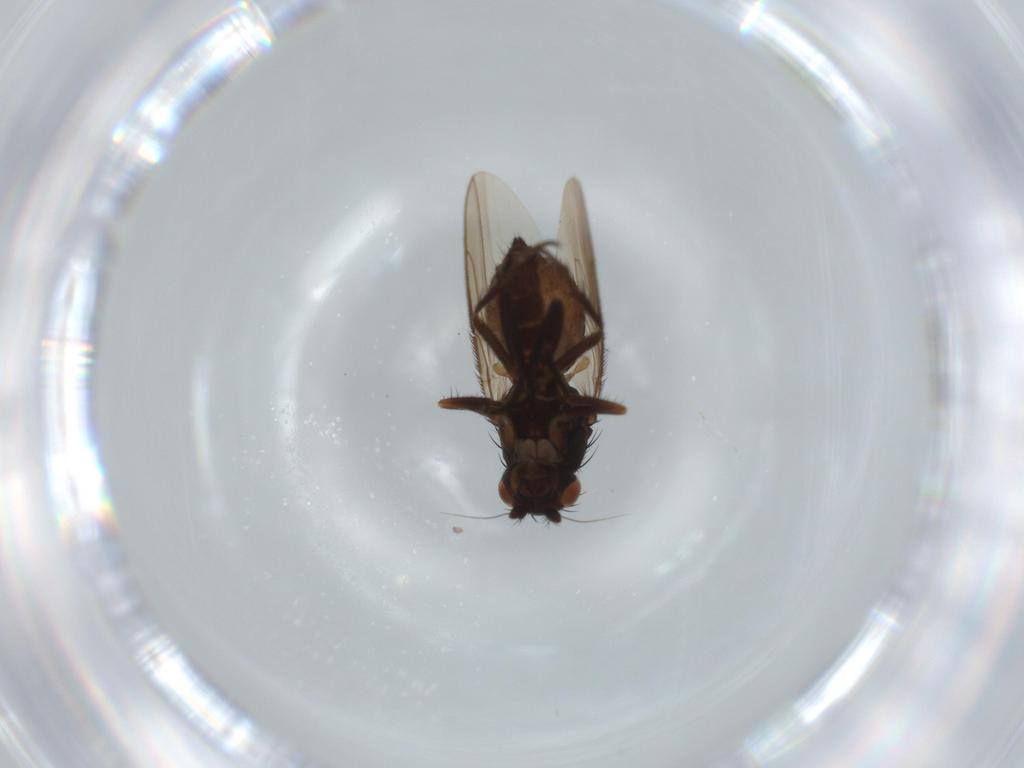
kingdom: Animalia
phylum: Arthropoda
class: Insecta
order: Diptera
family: Sphaeroceridae
